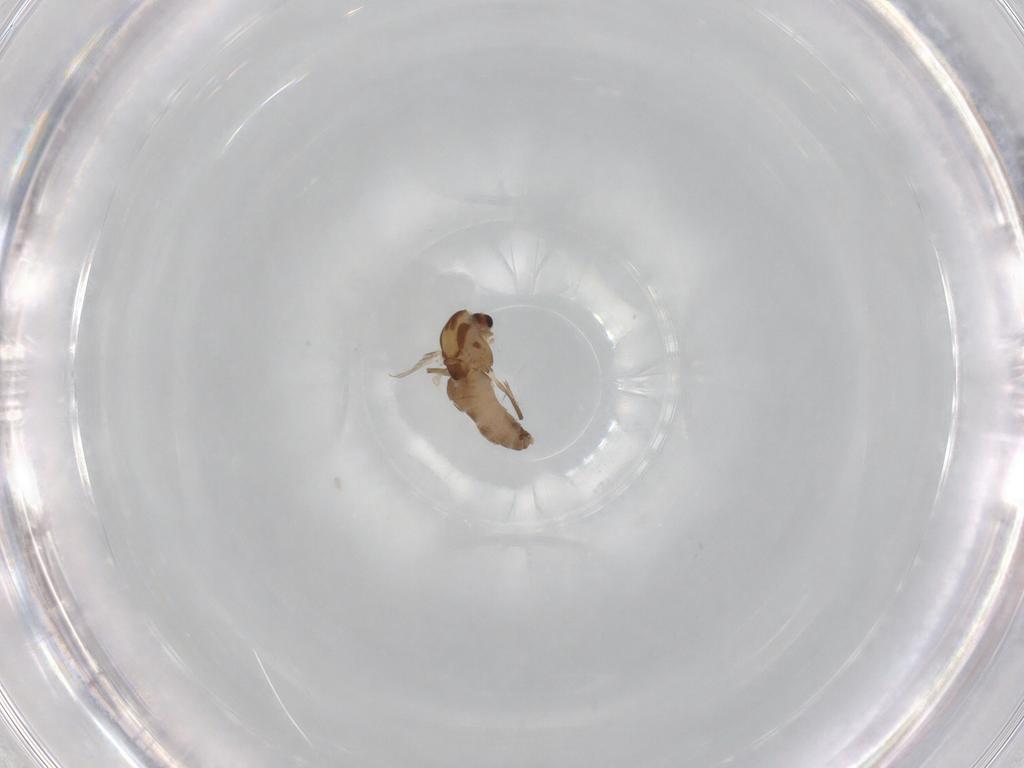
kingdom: Animalia
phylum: Arthropoda
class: Insecta
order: Diptera
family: Chironomidae
